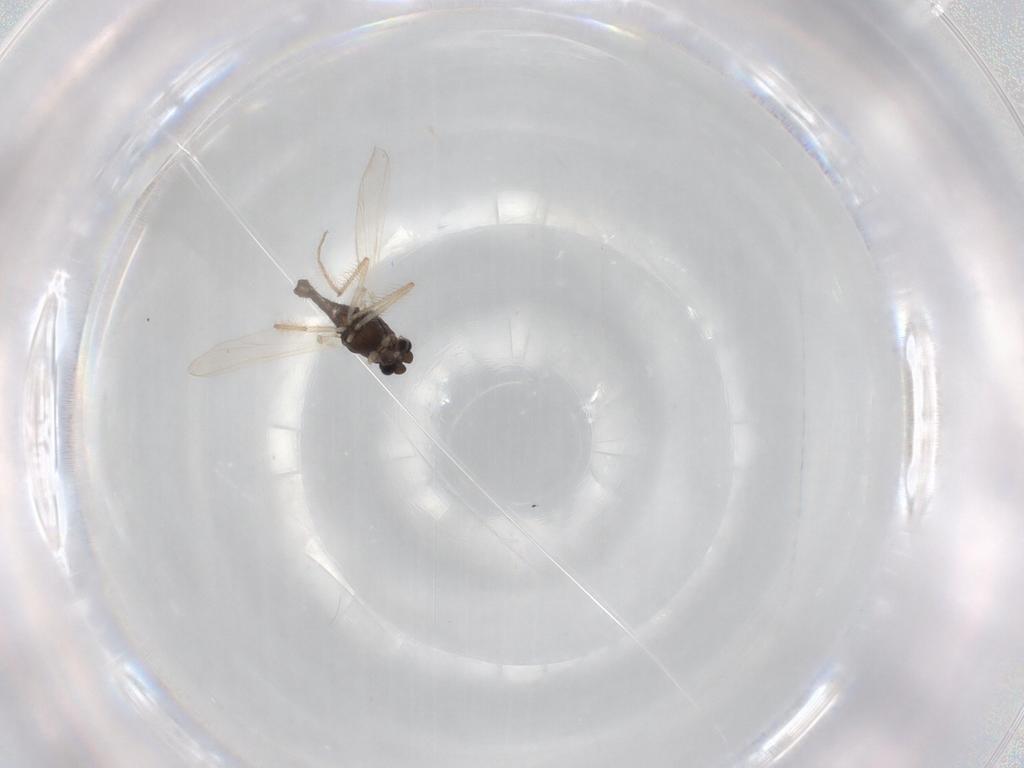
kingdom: Animalia
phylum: Arthropoda
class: Insecta
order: Diptera
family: Chironomidae
